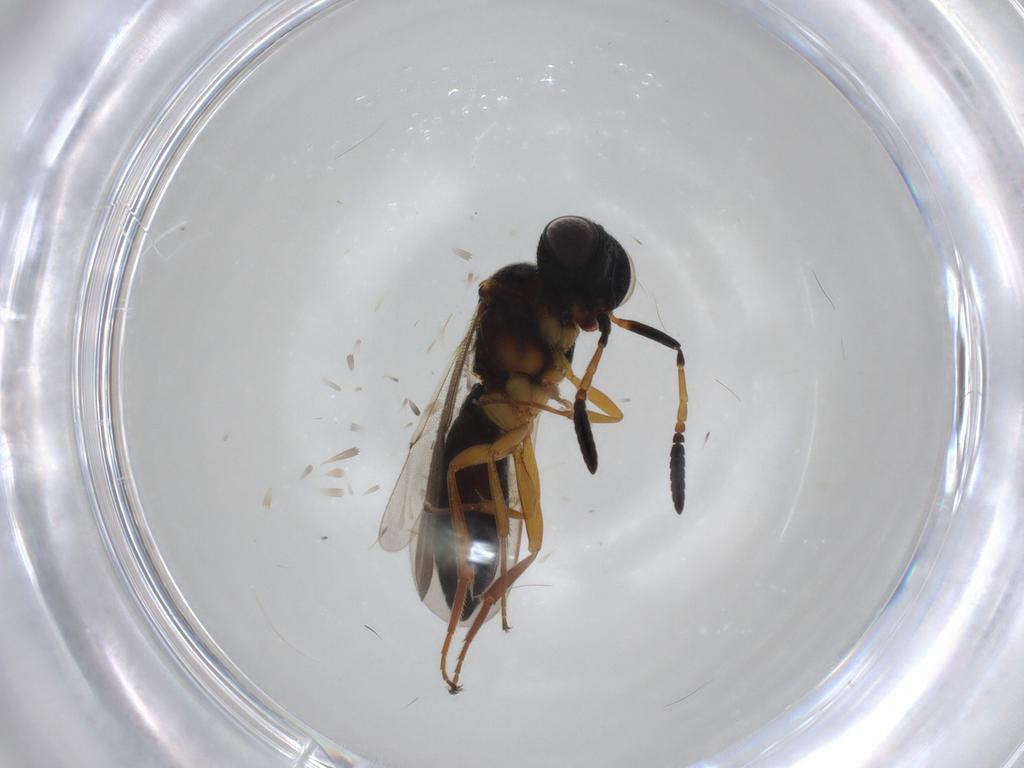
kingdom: Animalia
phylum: Arthropoda
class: Insecta
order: Hymenoptera
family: Scelionidae
